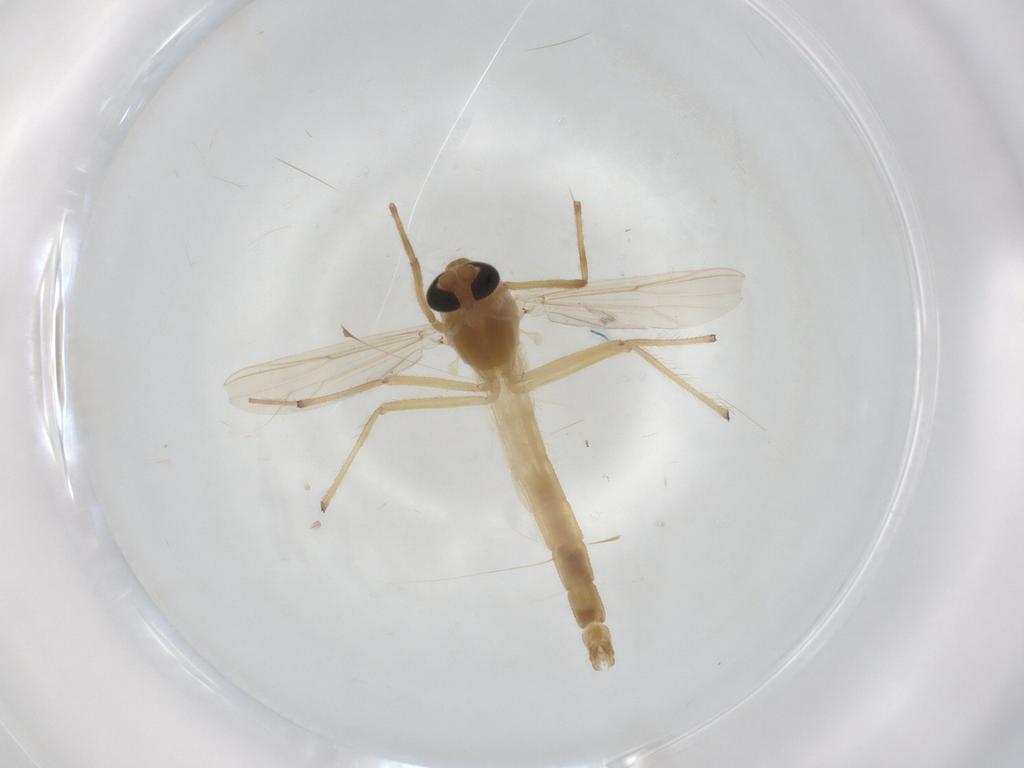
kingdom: Animalia
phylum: Arthropoda
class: Insecta
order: Diptera
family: Chironomidae
